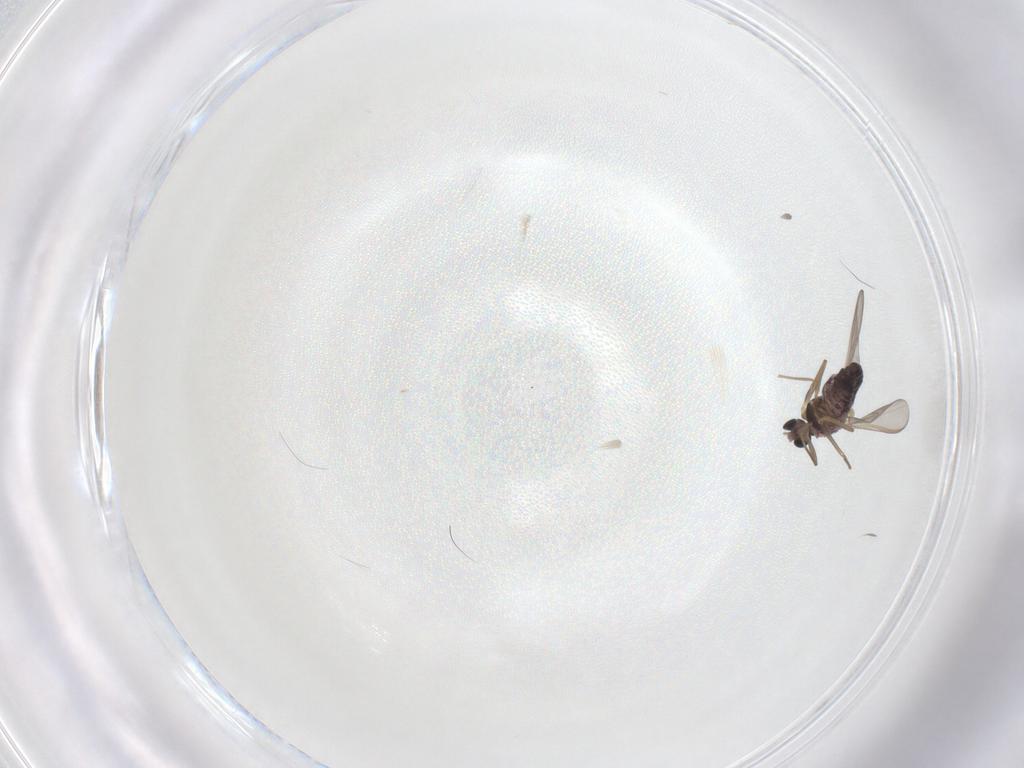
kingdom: Animalia
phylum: Arthropoda
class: Insecta
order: Diptera
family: Chironomidae
